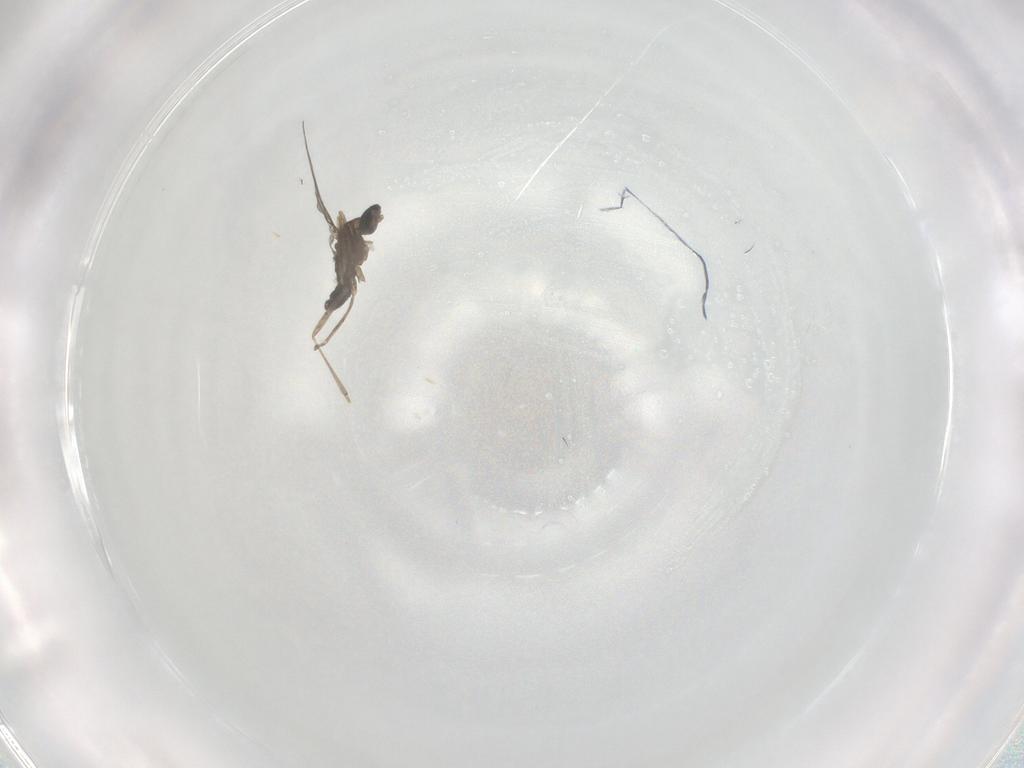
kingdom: Animalia
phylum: Arthropoda
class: Insecta
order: Diptera
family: Cecidomyiidae
